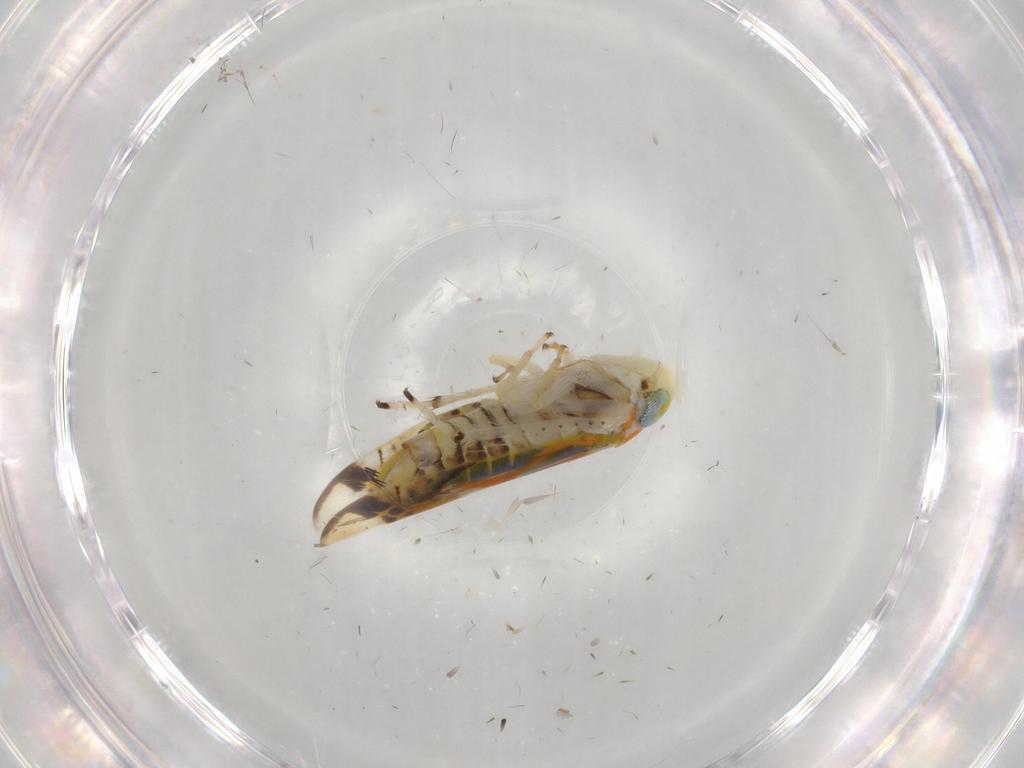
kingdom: Animalia
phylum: Arthropoda
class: Insecta
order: Hemiptera
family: Cicadellidae
